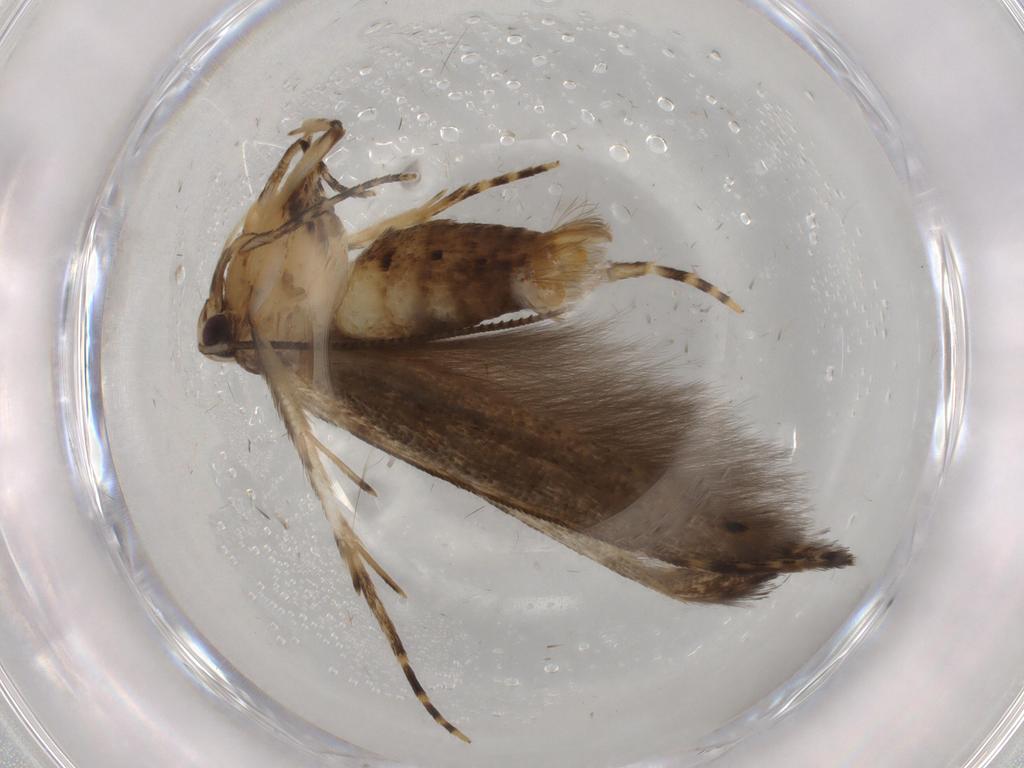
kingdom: Animalia
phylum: Arthropoda
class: Insecta
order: Lepidoptera
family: Cosmopterigidae
